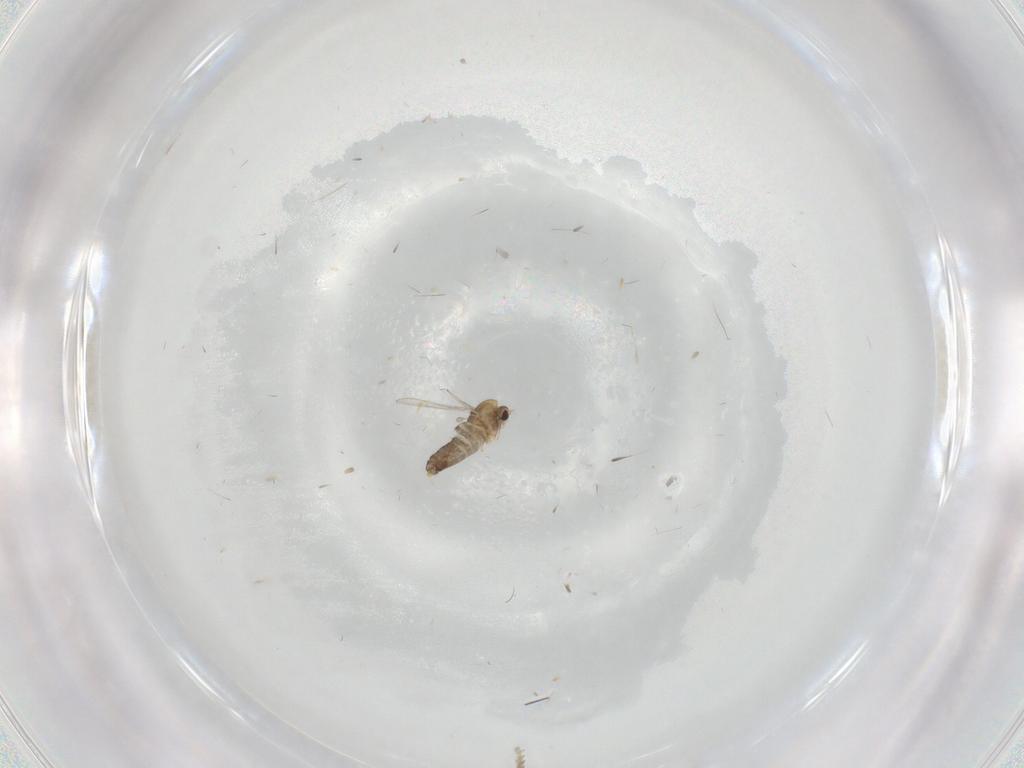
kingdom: Animalia
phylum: Arthropoda
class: Insecta
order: Diptera
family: Chironomidae
